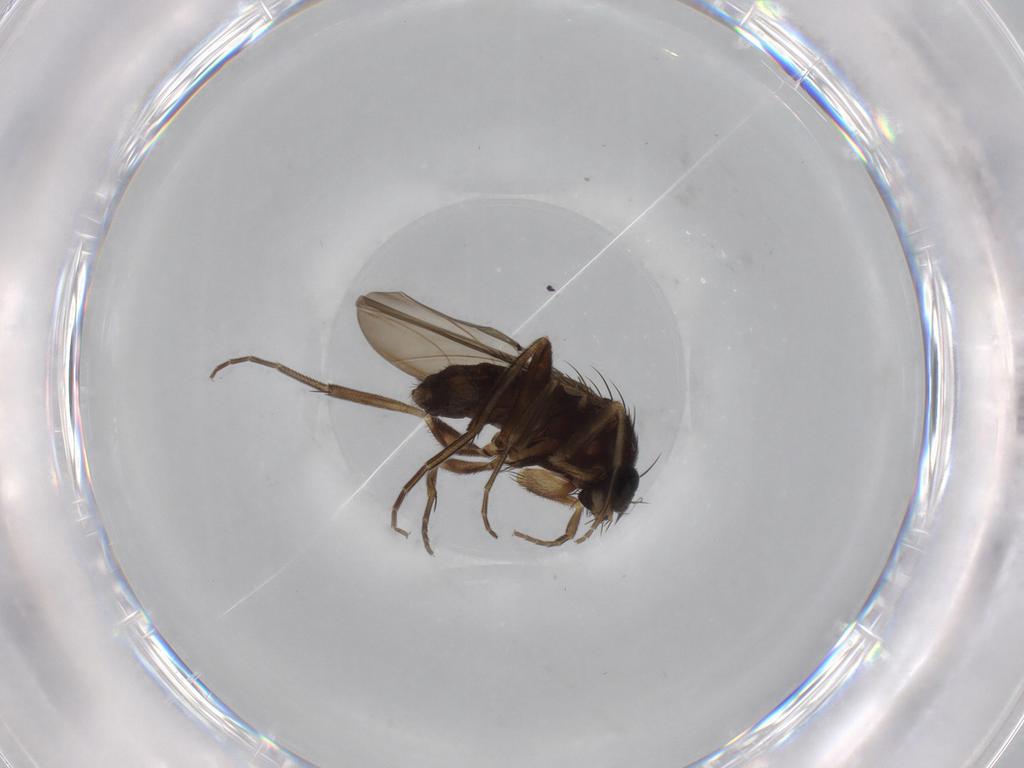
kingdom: Animalia
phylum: Arthropoda
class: Insecta
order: Diptera
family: Phoridae
